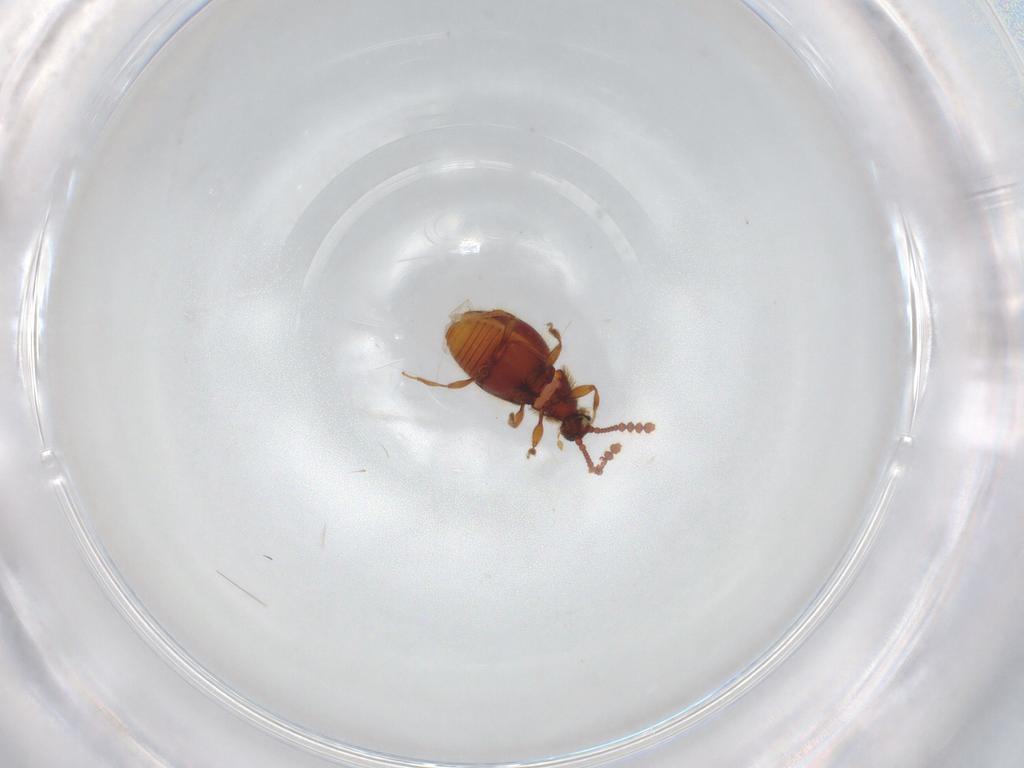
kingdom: Animalia
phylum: Arthropoda
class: Insecta
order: Coleoptera
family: Staphylinidae
